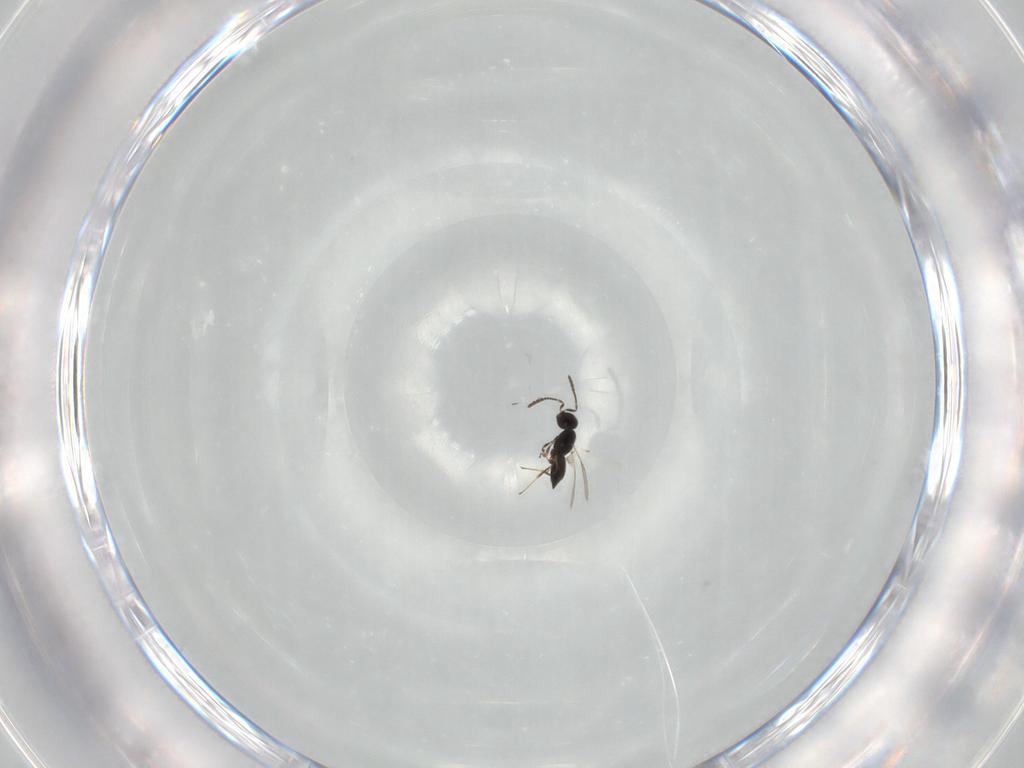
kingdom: Animalia
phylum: Arthropoda
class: Insecta
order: Hymenoptera
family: Scelionidae
